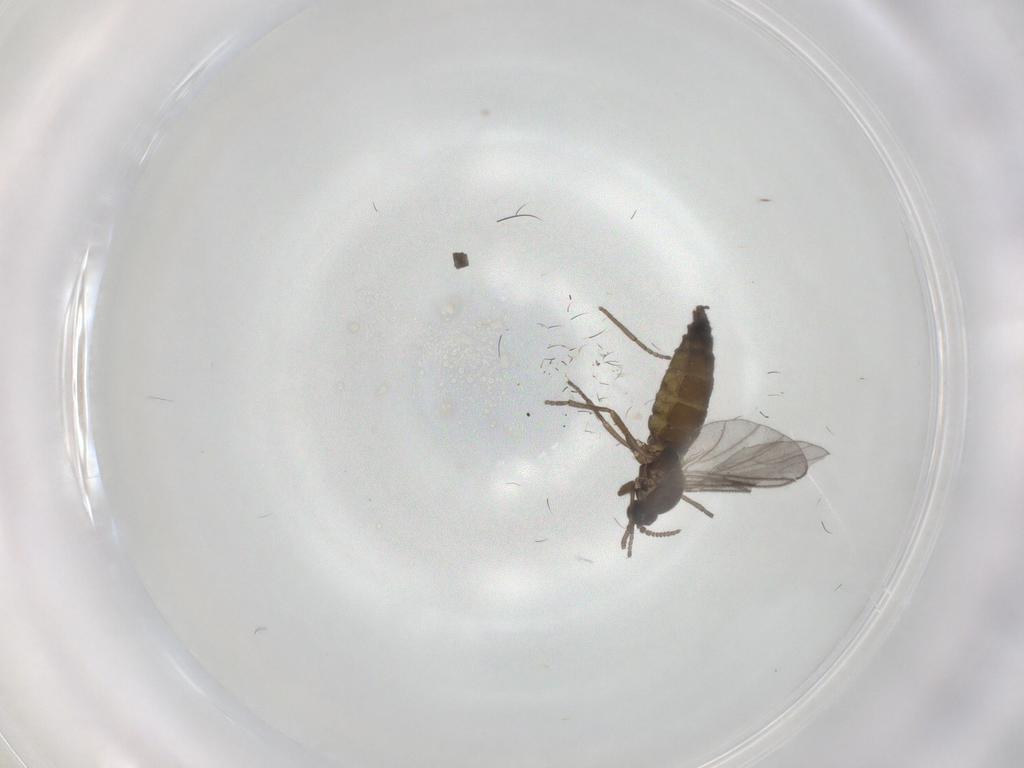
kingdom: Animalia
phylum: Arthropoda
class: Insecta
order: Diptera
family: Sciaridae
